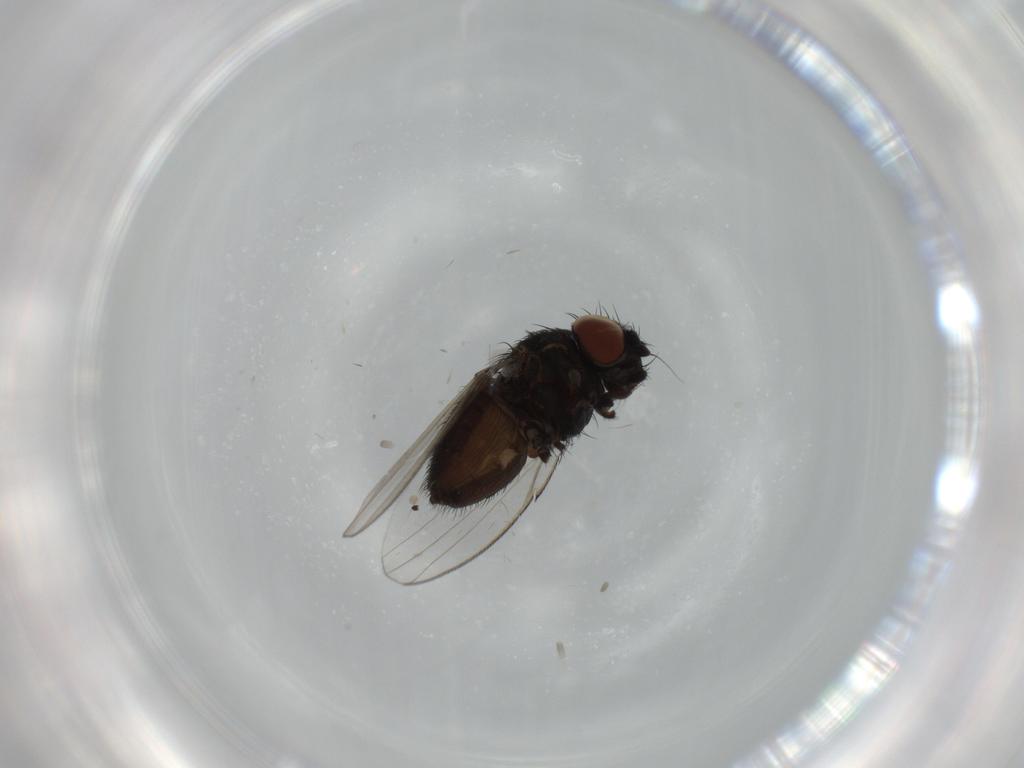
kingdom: Animalia
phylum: Arthropoda
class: Insecta
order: Diptera
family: Milichiidae
